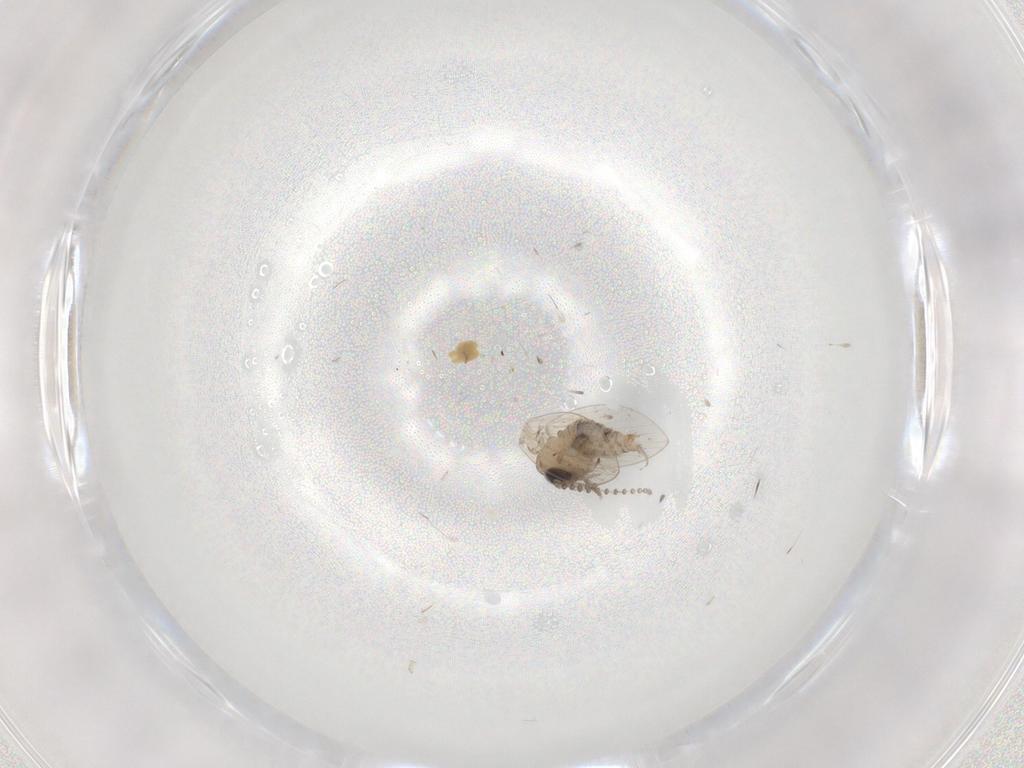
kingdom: Animalia
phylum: Arthropoda
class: Insecta
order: Diptera
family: Psychodidae
